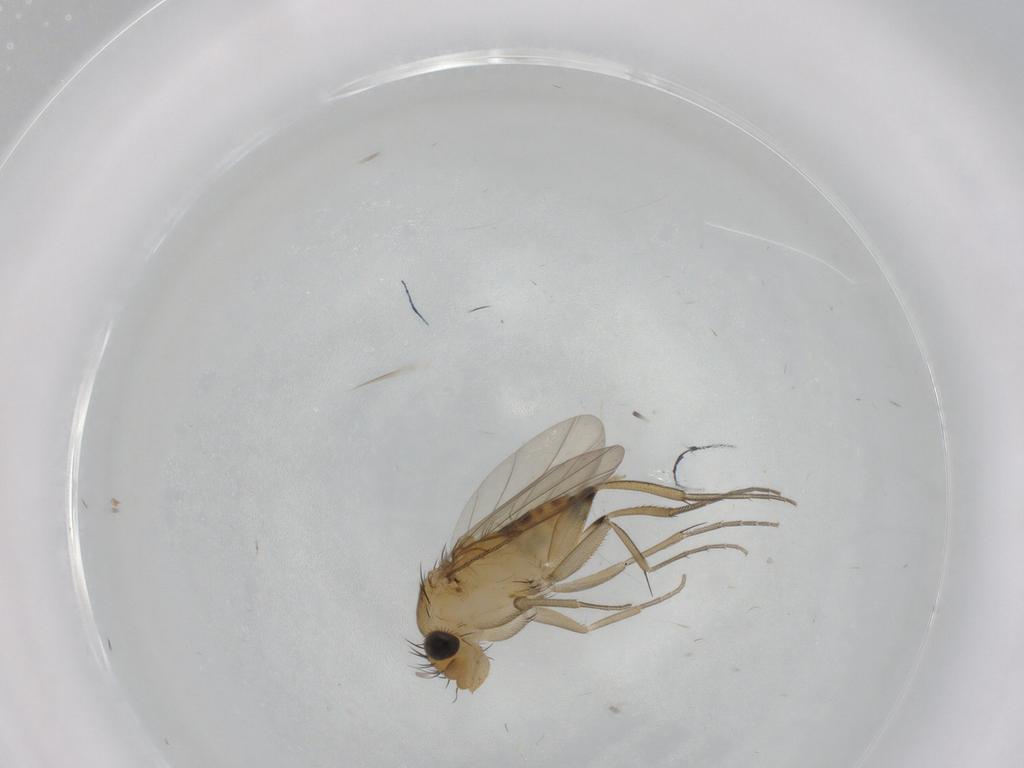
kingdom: Animalia
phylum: Arthropoda
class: Insecta
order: Diptera
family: Phoridae
